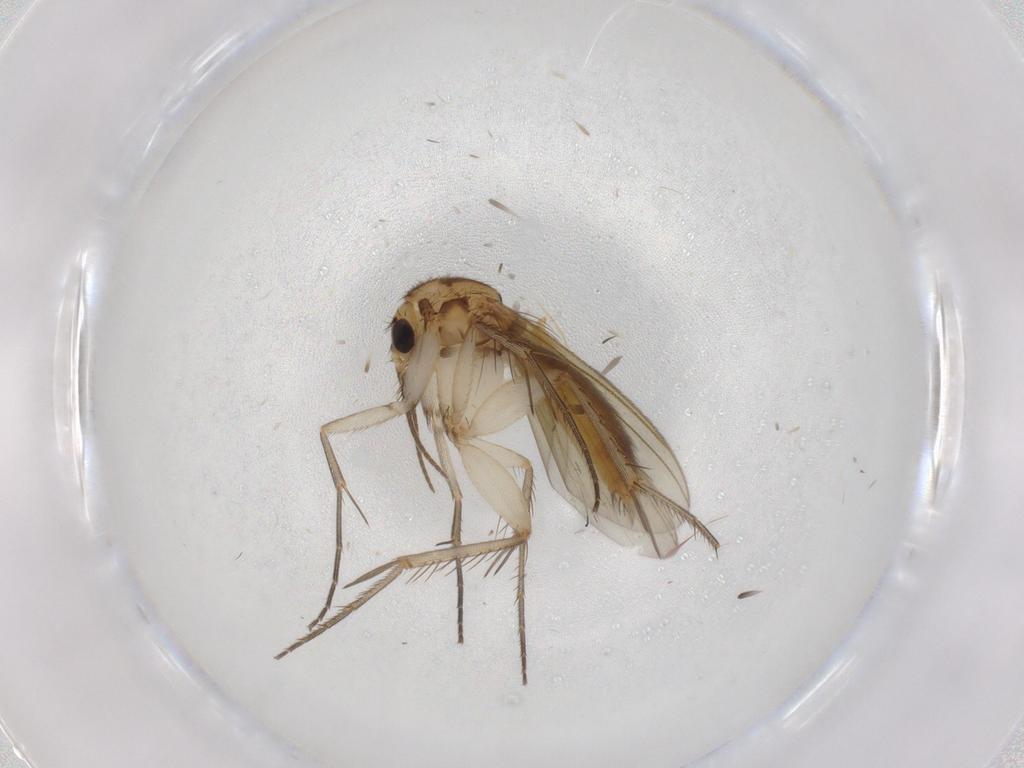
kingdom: Animalia
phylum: Arthropoda
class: Insecta
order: Diptera
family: Mycetophilidae
